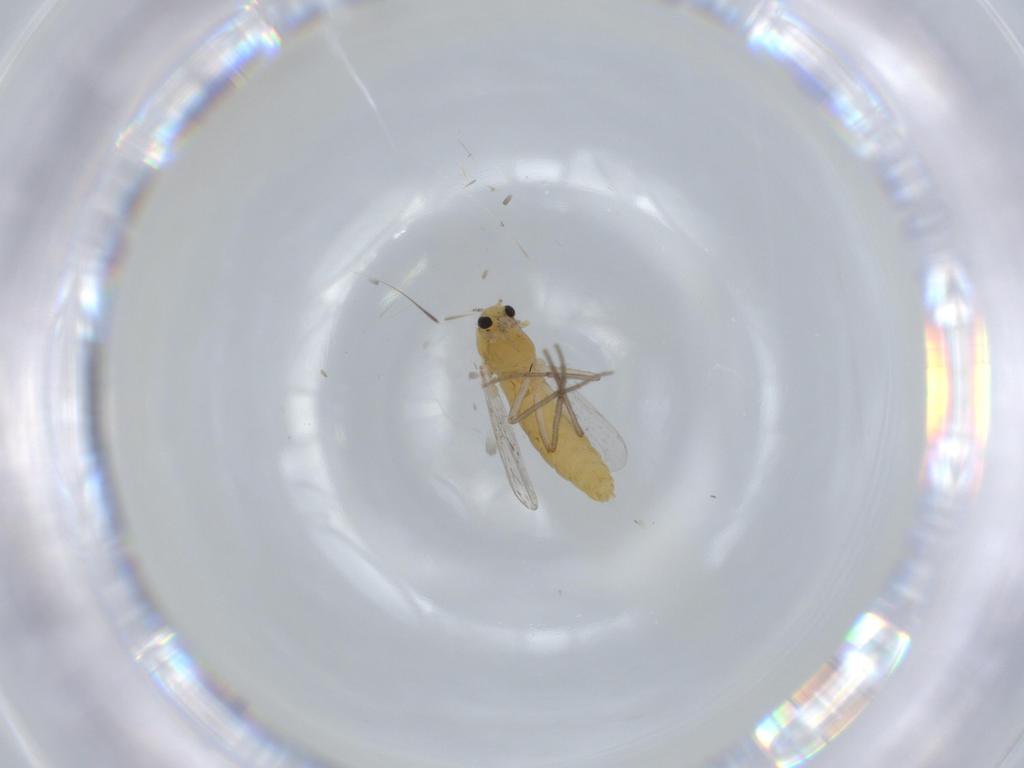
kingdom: Animalia
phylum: Arthropoda
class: Insecta
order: Diptera
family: Chironomidae
